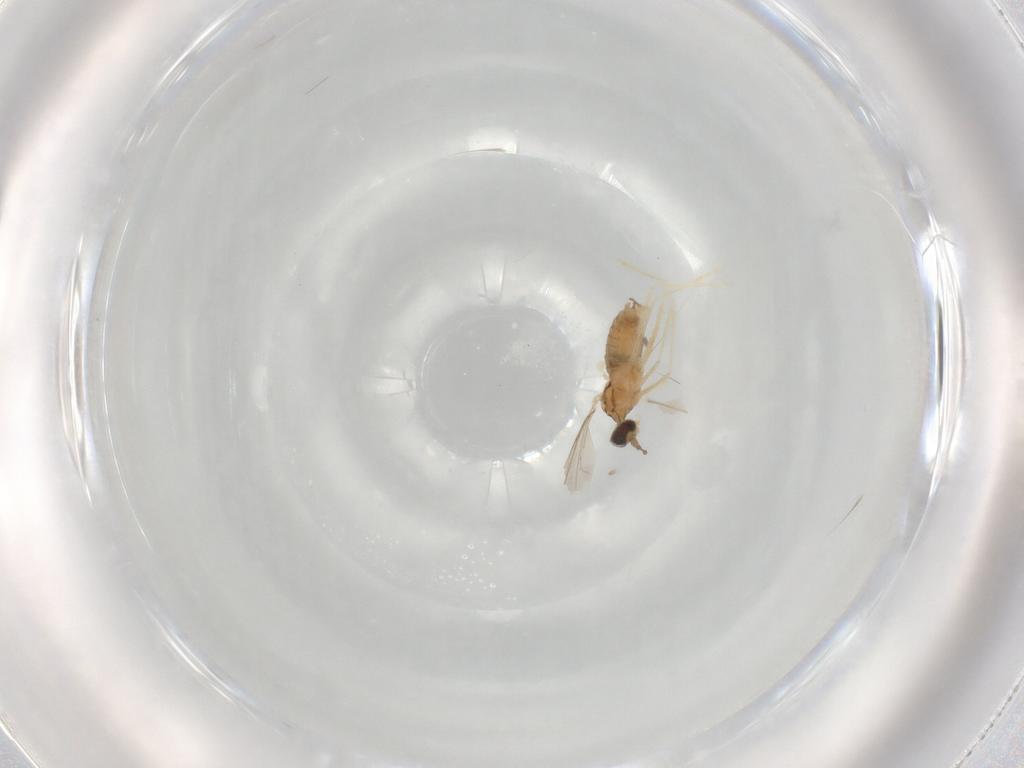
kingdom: Animalia
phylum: Arthropoda
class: Insecta
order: Diptera
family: Cecidomyiidae
